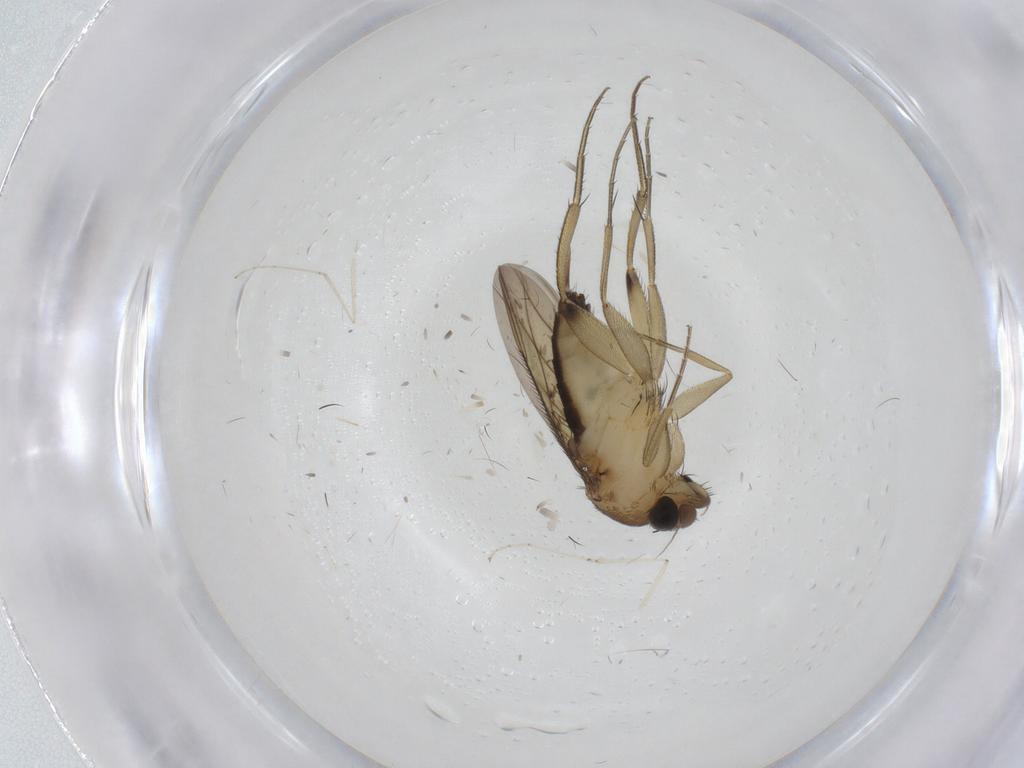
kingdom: Animalia
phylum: Arthropoda
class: Insecta
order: Diptera
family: Phoridae
